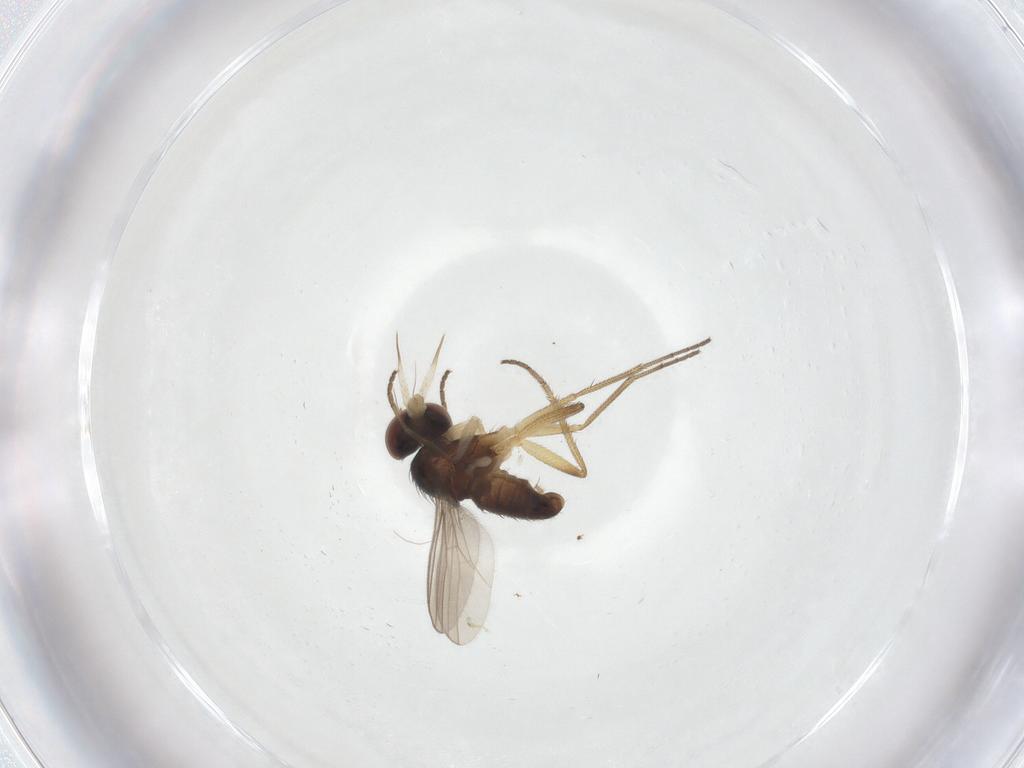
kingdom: Animalia
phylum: Arthropoda
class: Insecta
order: Diptera
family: Dolichopodidae
